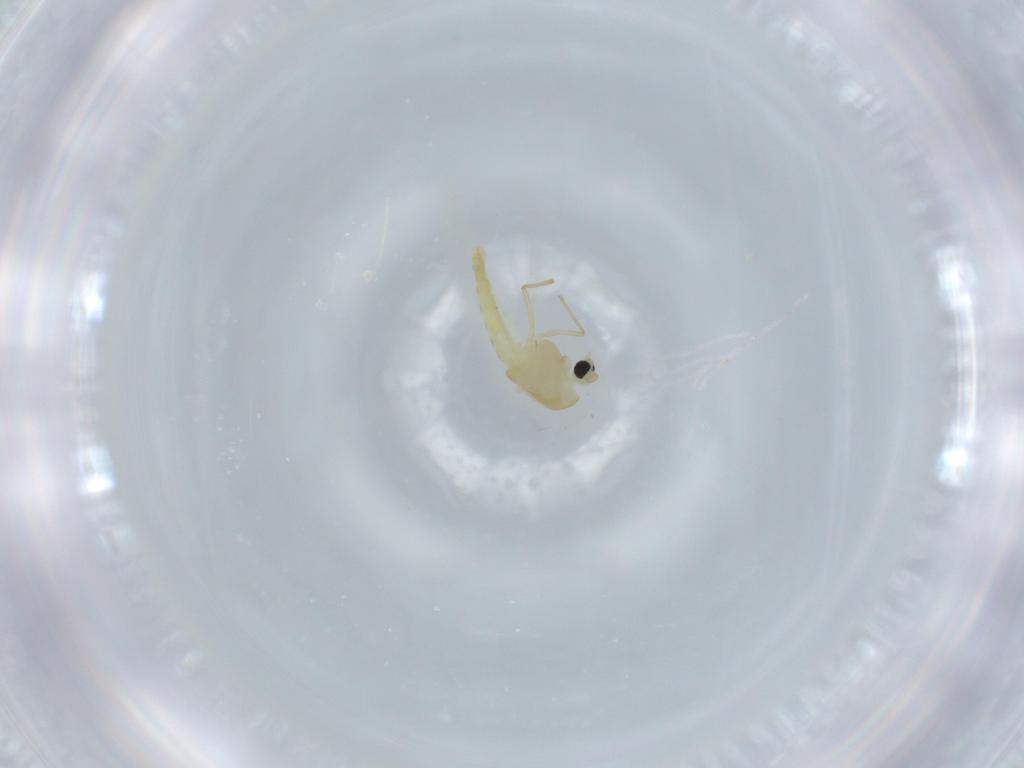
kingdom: Animalia
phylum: Arthropoda
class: Insecta
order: Diptera
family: Chironomidae
